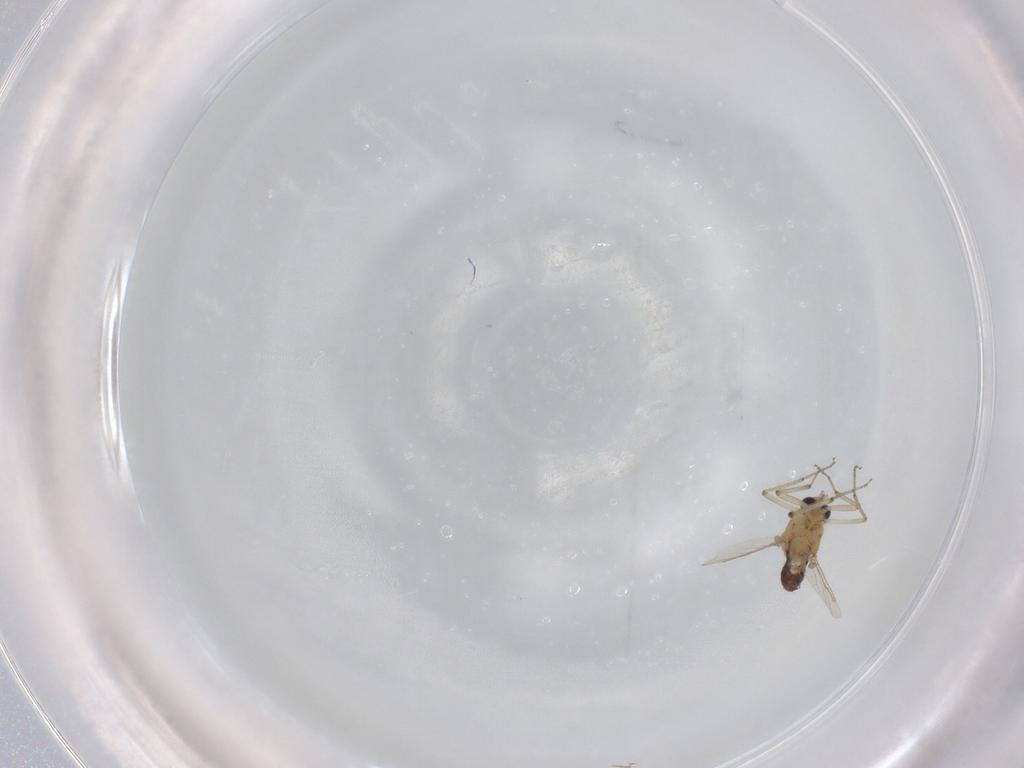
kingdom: Animalia
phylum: Arthropoda
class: Insecta
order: Diptera
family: Ceratopogonidae
